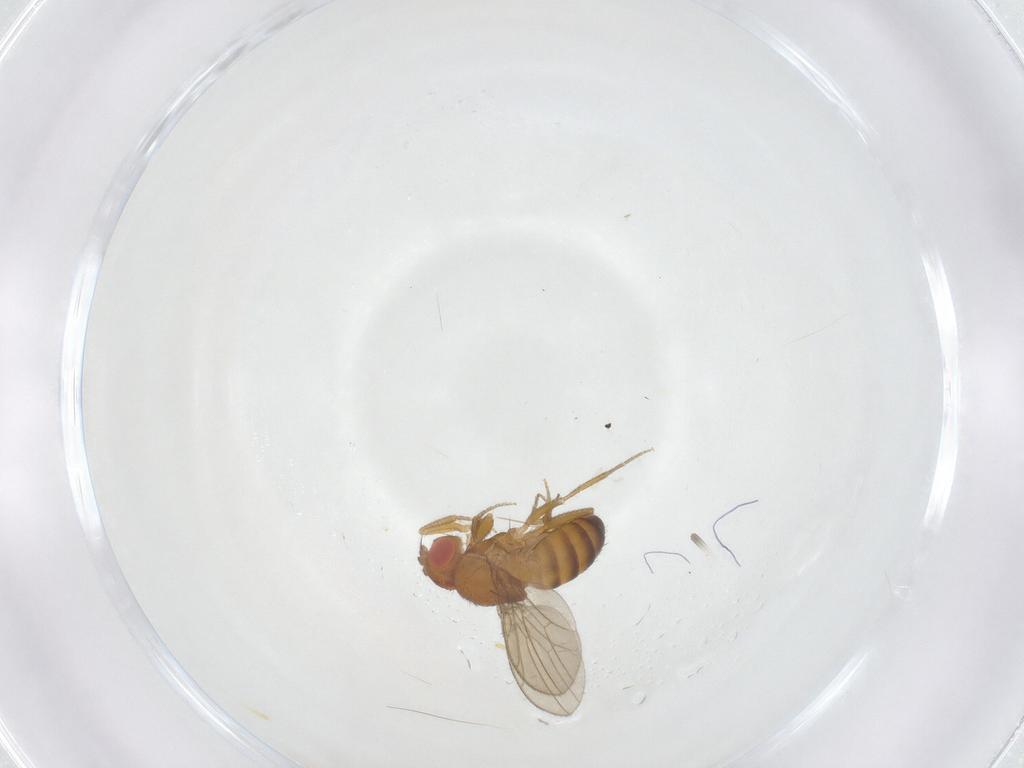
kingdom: Animalia
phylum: Arthropoda
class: Insecta
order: Diptera
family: Drosophilidae
